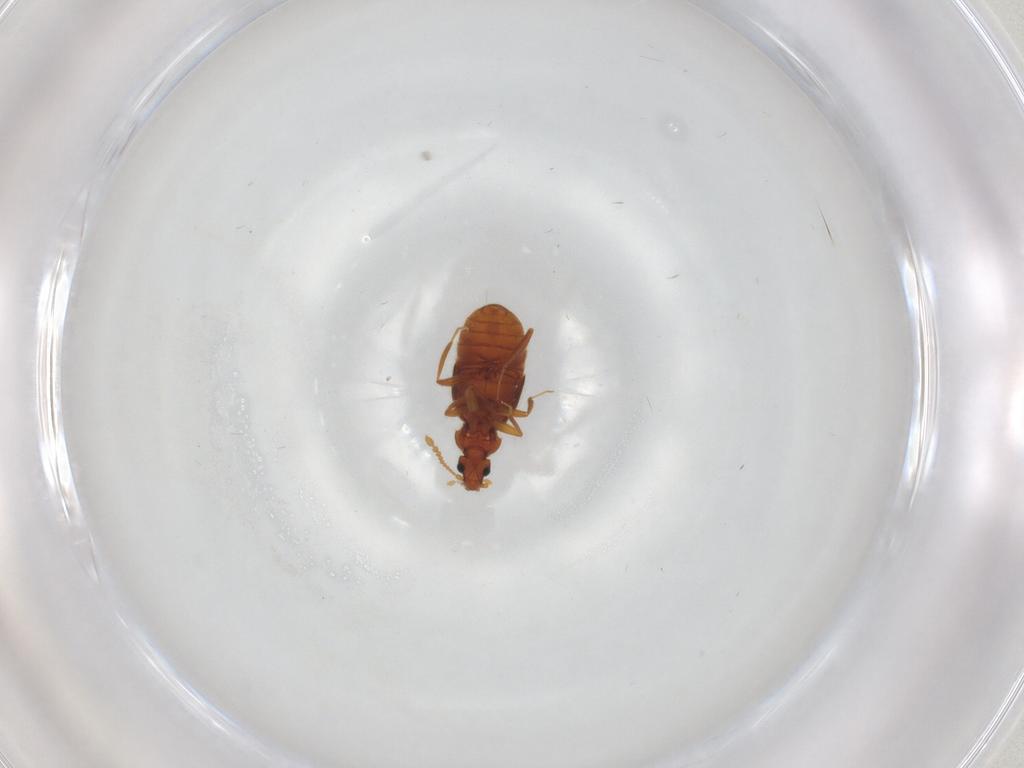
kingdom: Animalia
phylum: Arthropoda
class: Insecta
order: Coleoptera
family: Staphylinidae
